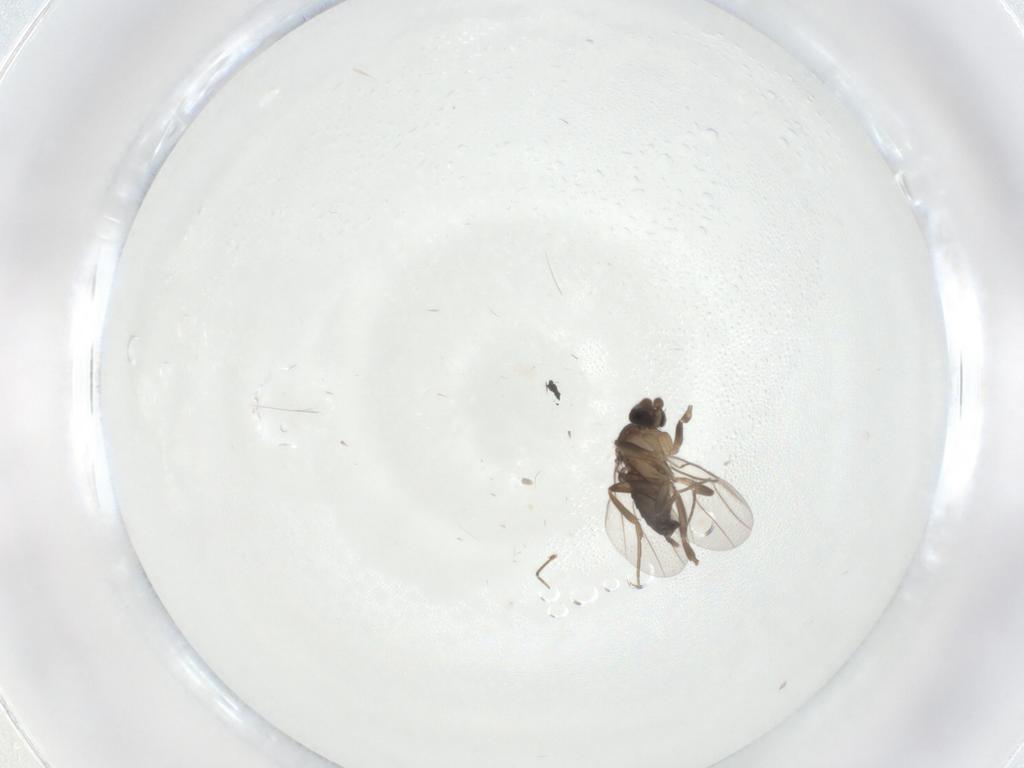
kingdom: Animalia
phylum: Arthropoda
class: Insecta
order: Diptera
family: Phoridae
